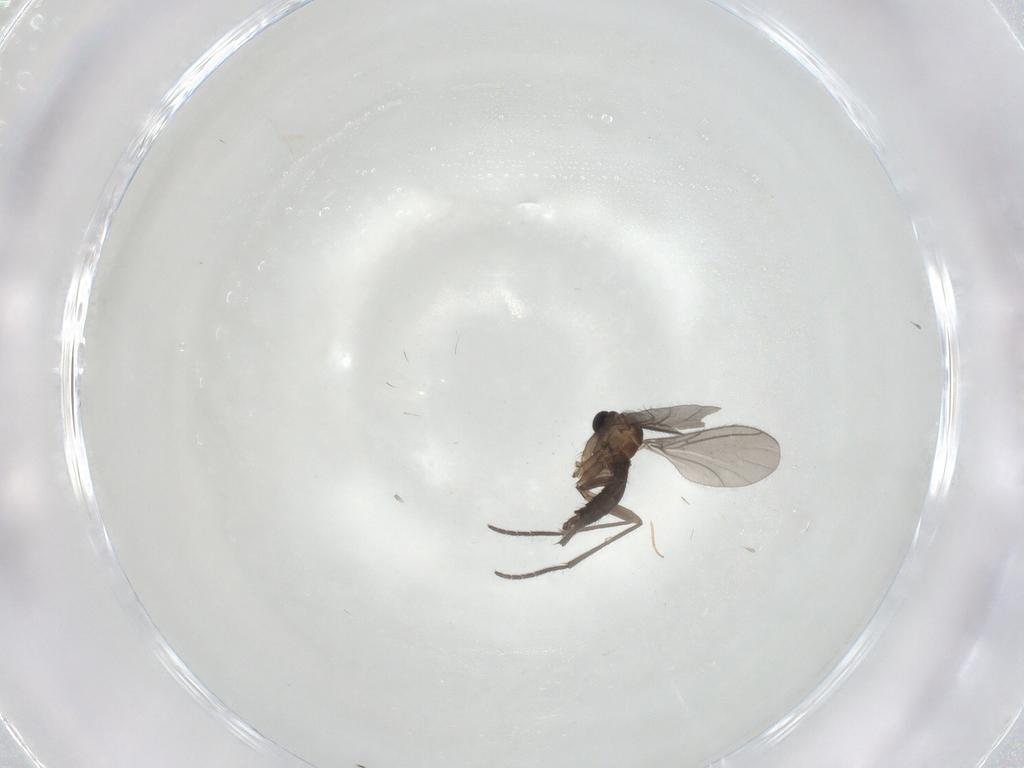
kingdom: Animalia
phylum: Arthropoda
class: Insecta
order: Diptera
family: Sciaridae
